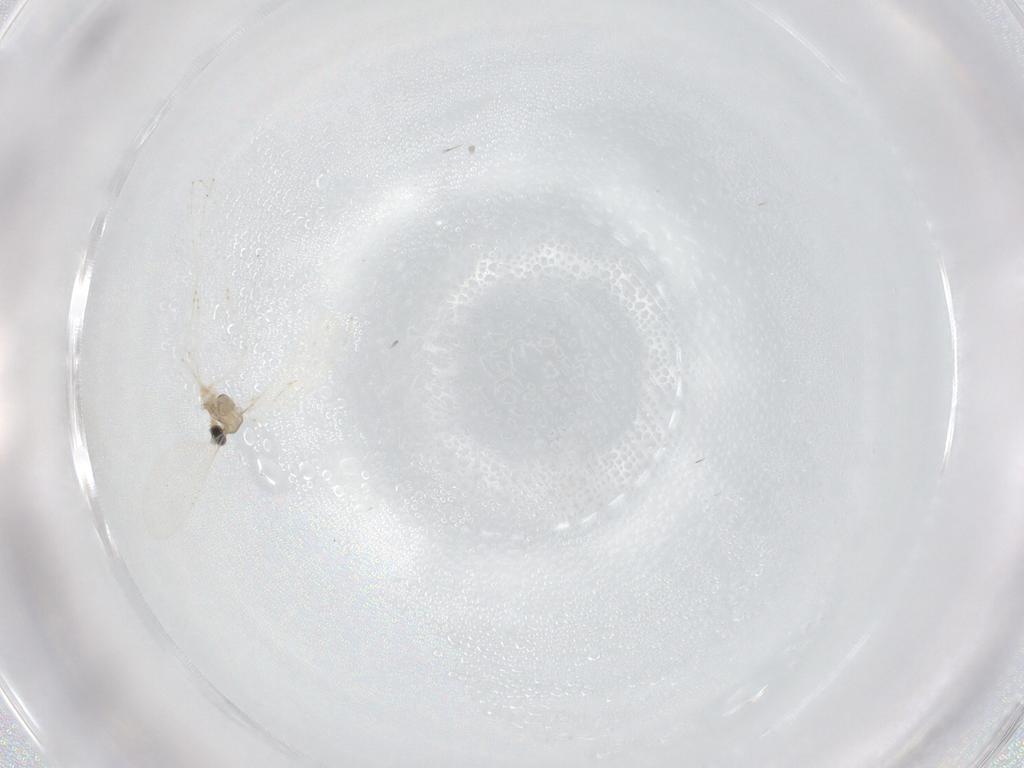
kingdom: Animalia
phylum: Arthropoda
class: Insecta
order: Diptera
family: Cecidomyiidae
